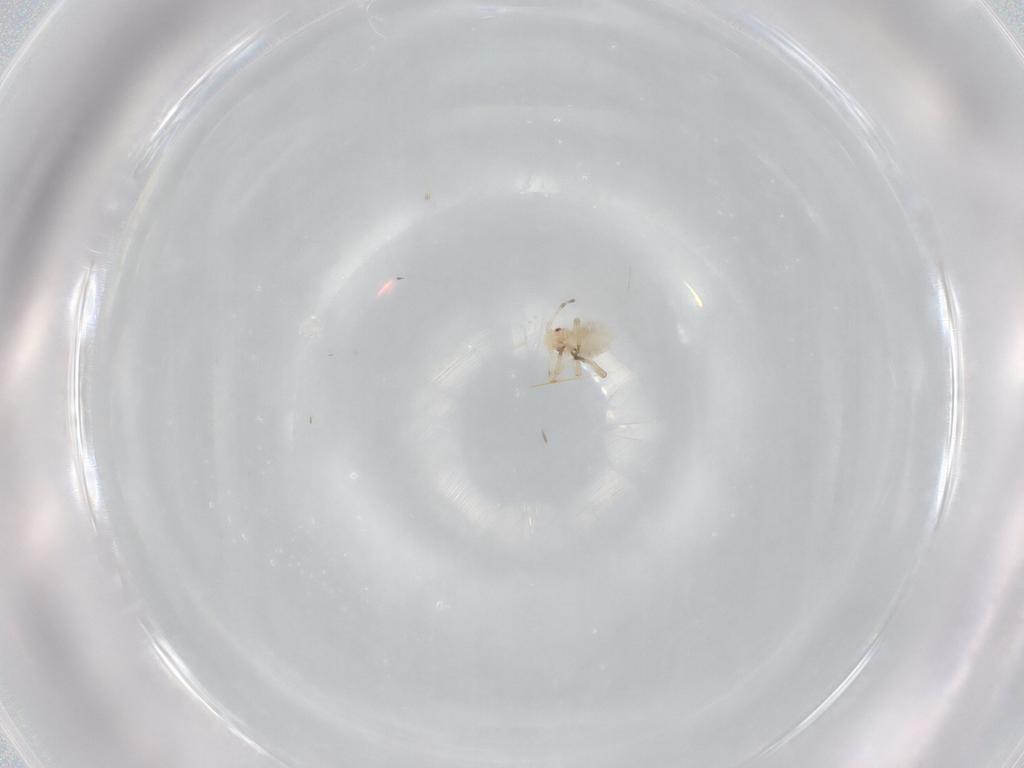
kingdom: Animalia
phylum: Arthropoda
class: Insecta
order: Hemiptera
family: Aphididae
